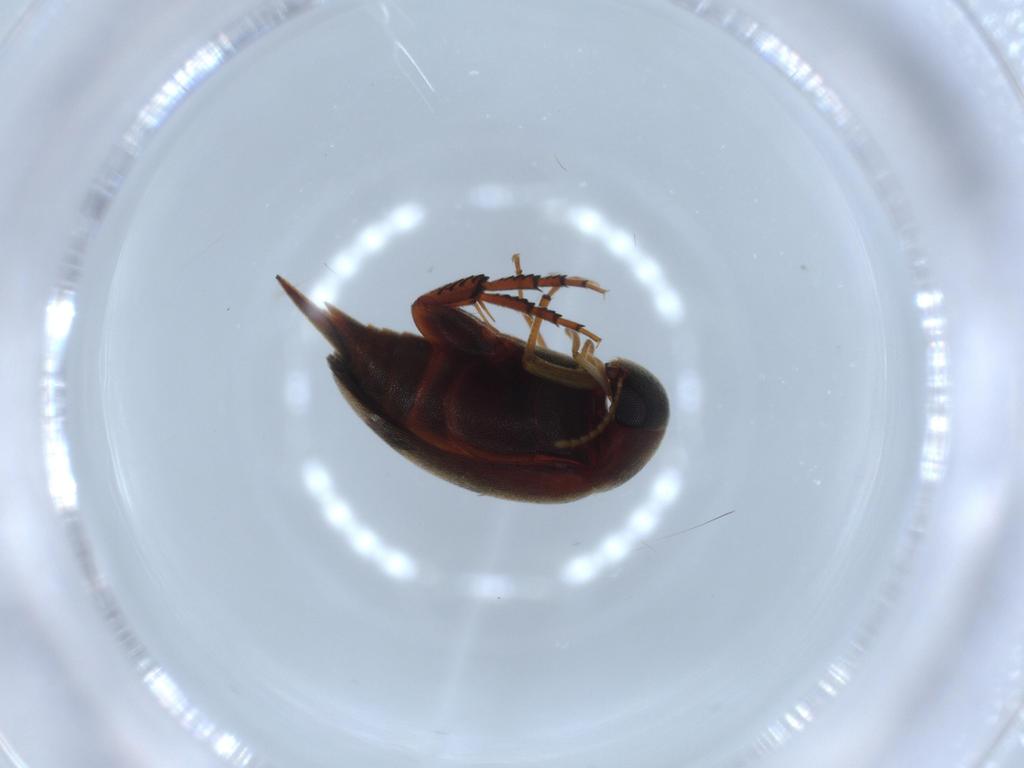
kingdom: Animalia
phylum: Arthropoda
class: Insecta
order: Coleoptera
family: Mordellidae
